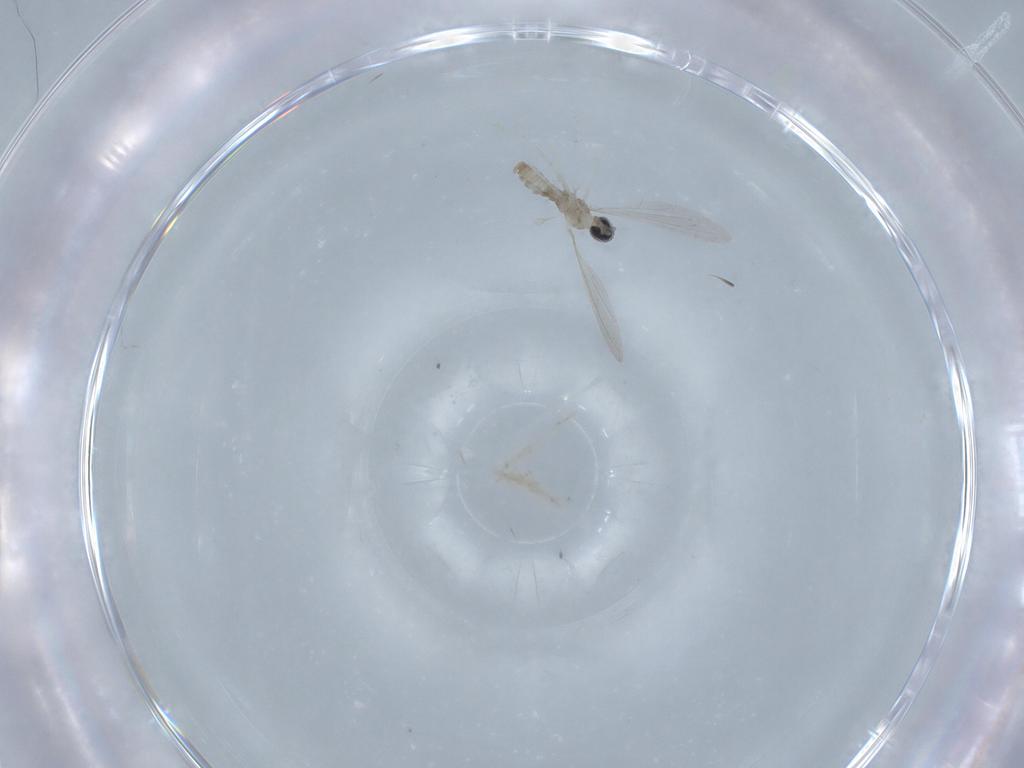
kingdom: Animalia
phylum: Arthropoda
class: Insecta
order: Diptera
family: Cecidomyiidae
